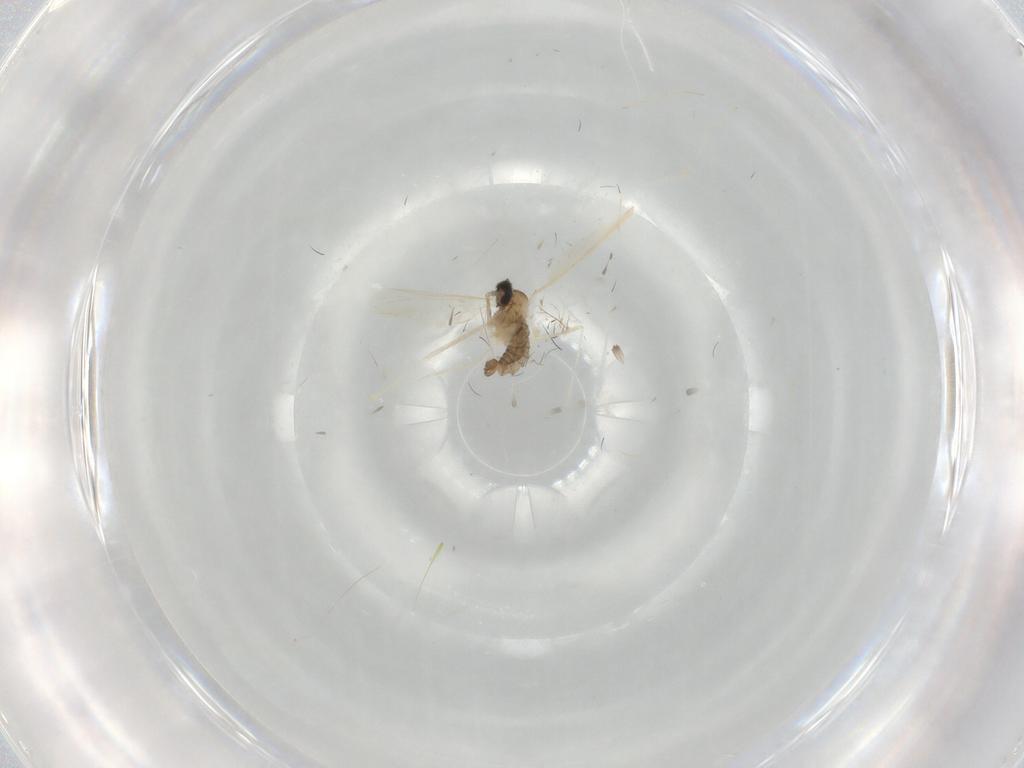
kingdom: Animalia
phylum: Arthropoda
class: Insecta
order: Diptera
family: Cecidomyiidae
